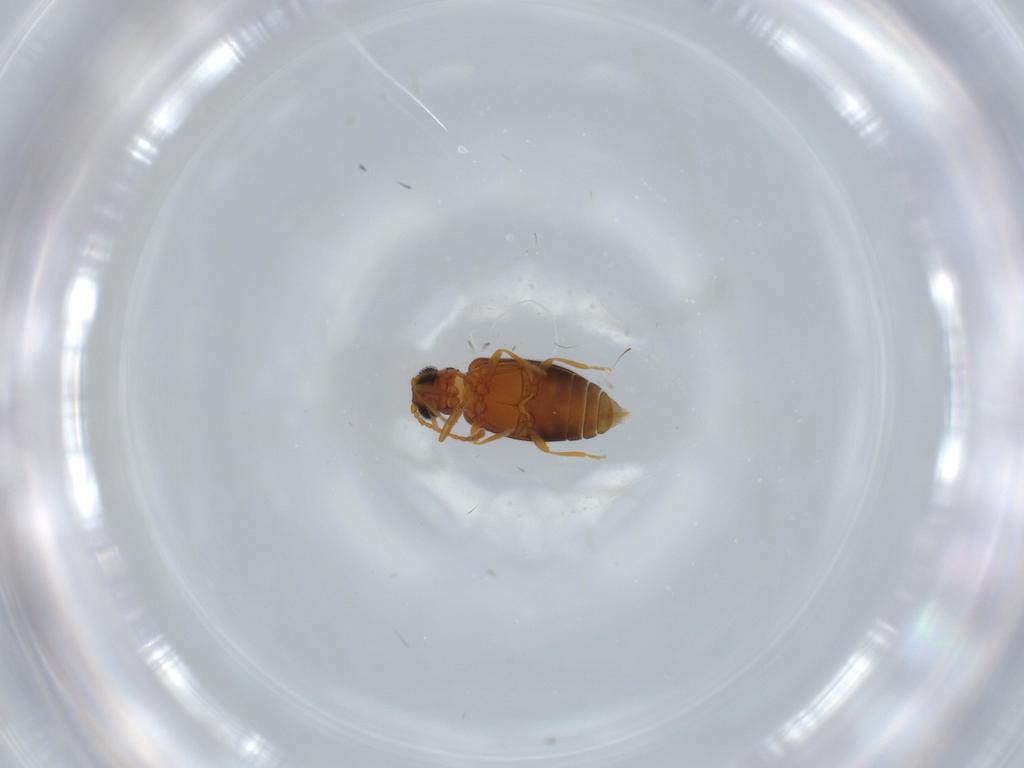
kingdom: Animalia
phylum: Arthropoda
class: Insecta
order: Coleoptera
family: Aderidae
